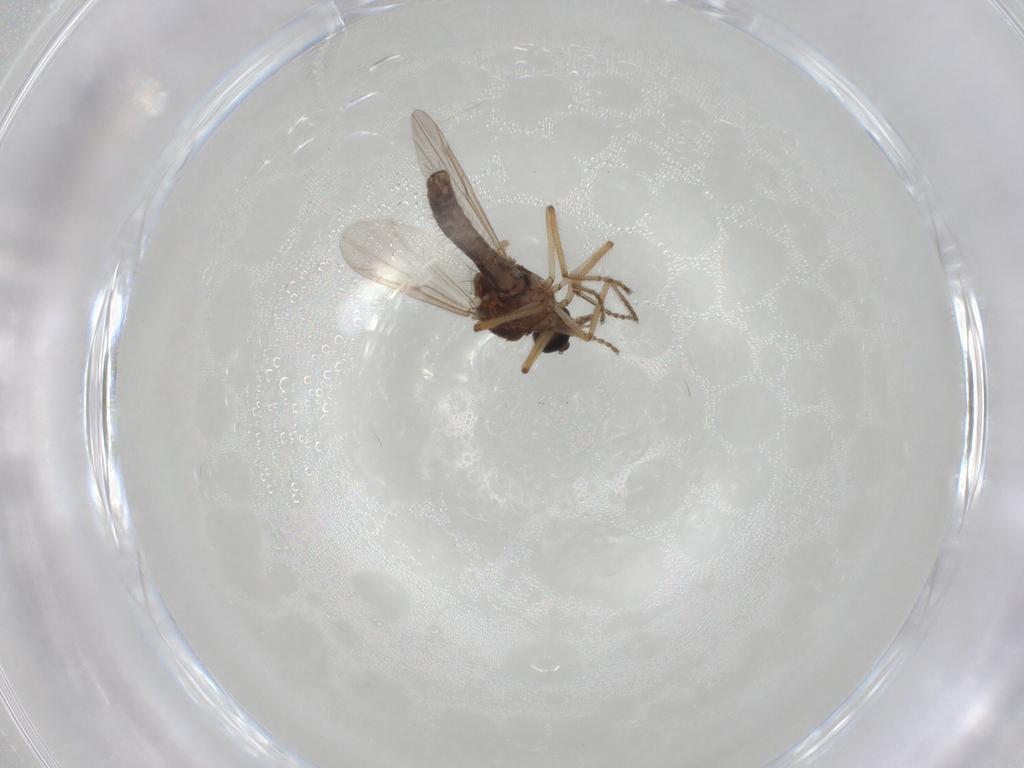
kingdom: Animalia
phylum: Arthropoda
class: Insecta
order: Diptera
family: Ceratopogonidae
